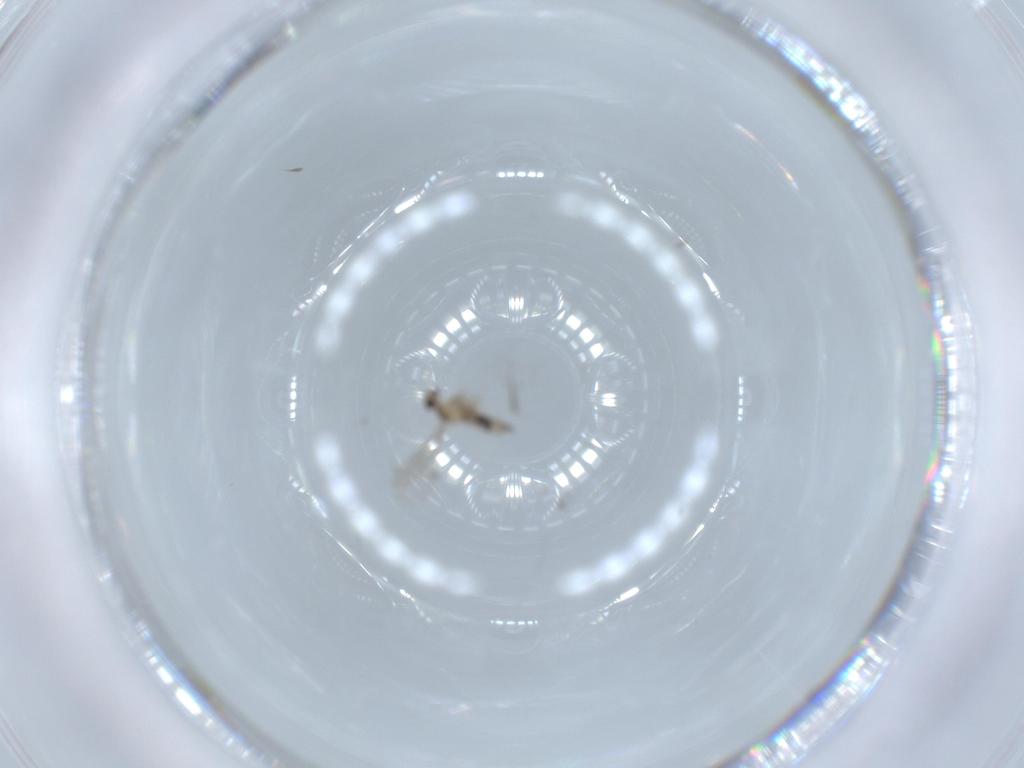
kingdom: Animalia
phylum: Arthropoda
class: Insecta
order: Diptera
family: Cecidomyiidae
